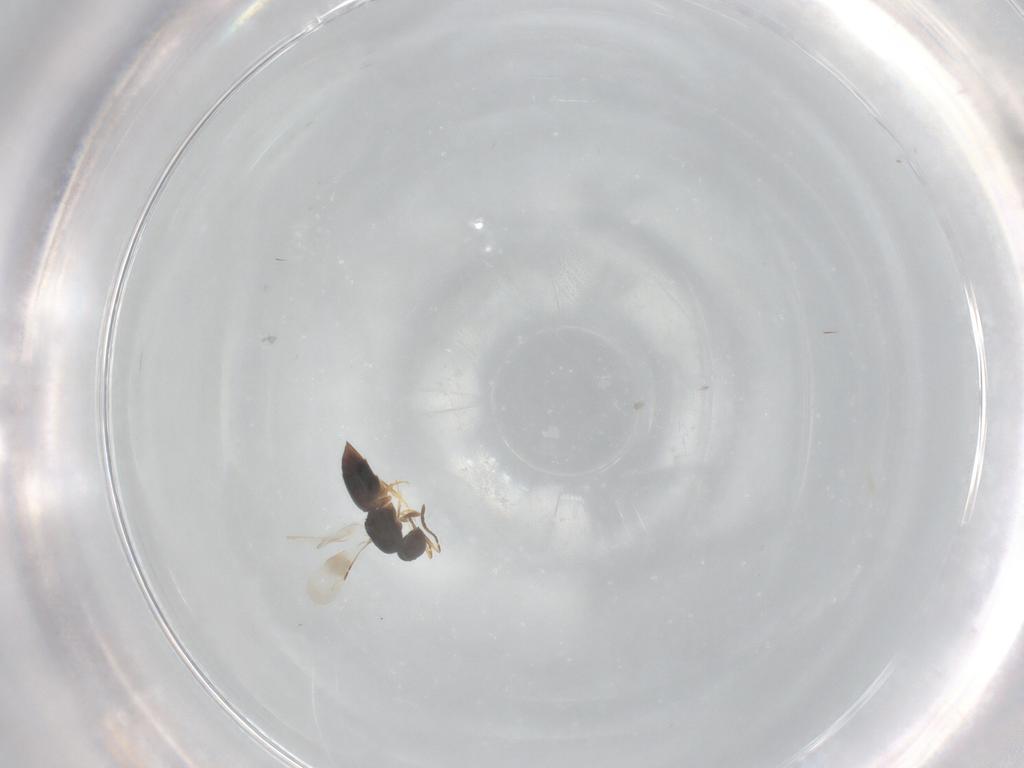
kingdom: Animalia
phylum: Arthropoda
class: Insecta
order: Hymenoptera
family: Ceraphronidae
